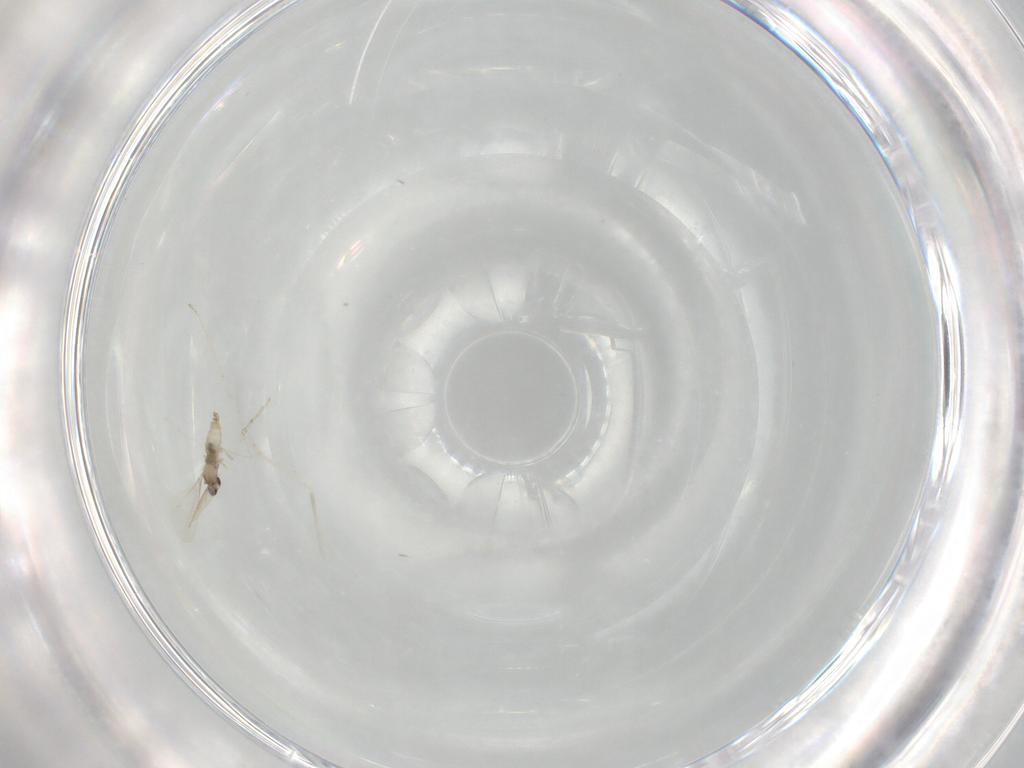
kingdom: Animalia
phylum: Arthropoda
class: Insecta
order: Diptera
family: Cecidomyiidae
